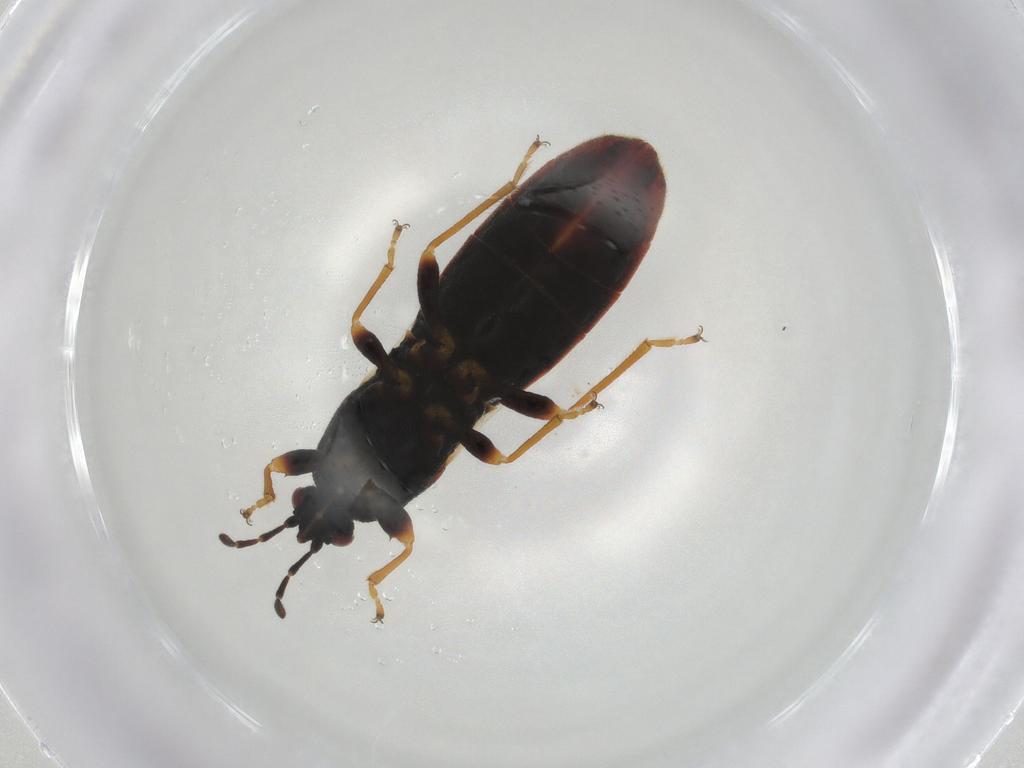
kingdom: Animalia
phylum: Arthropoda
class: Insecta
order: Hemiptera
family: Blissidae
